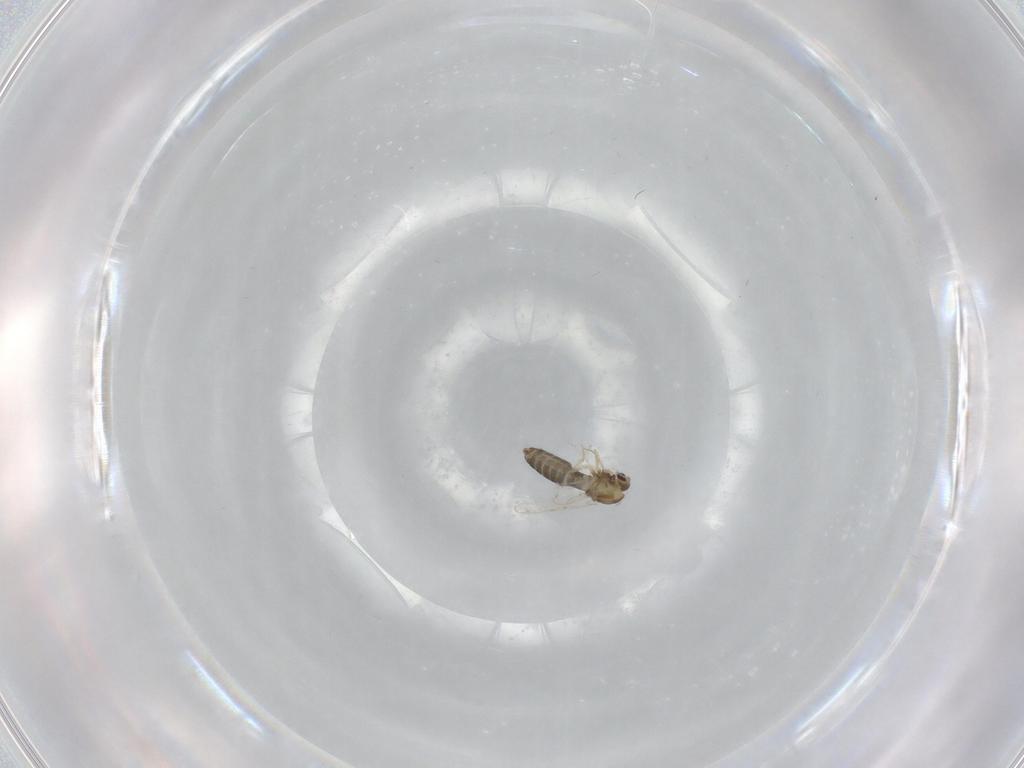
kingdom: Animalia
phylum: Arthropoda
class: Insecta
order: Diptera
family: Chironomidae
